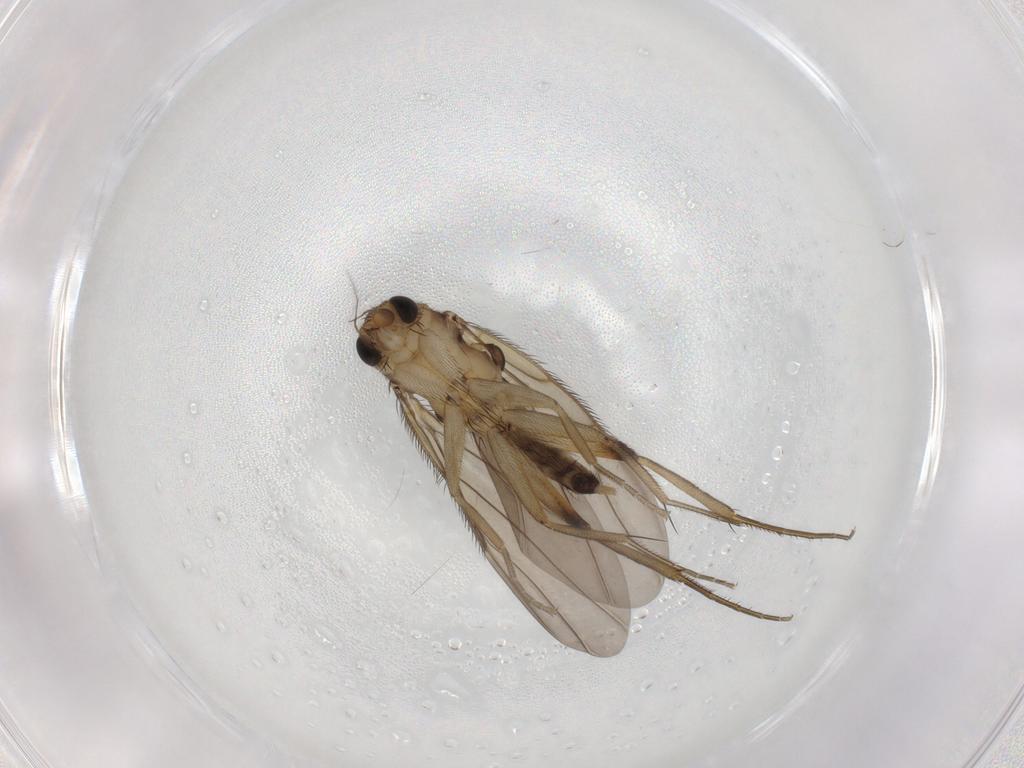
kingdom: Animalia
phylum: Arthropoda
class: Insecta
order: Diptera
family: Phoridae
